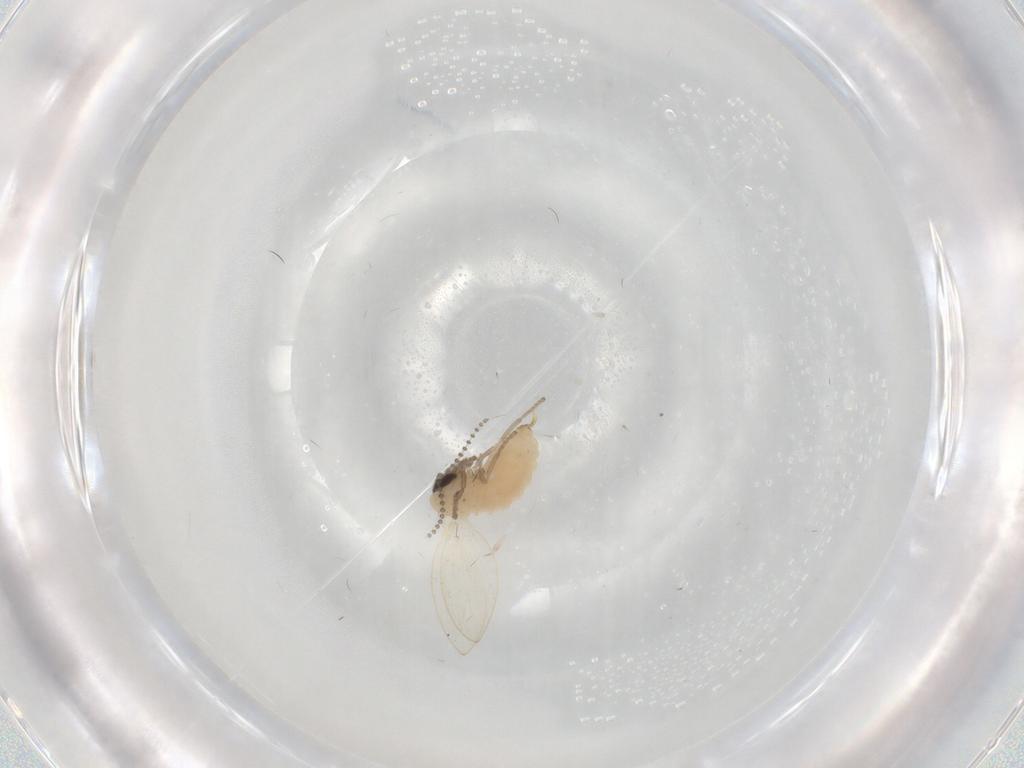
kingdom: Animalia
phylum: Arthropoda
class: Insecta
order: Diptera
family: Psychodidae
